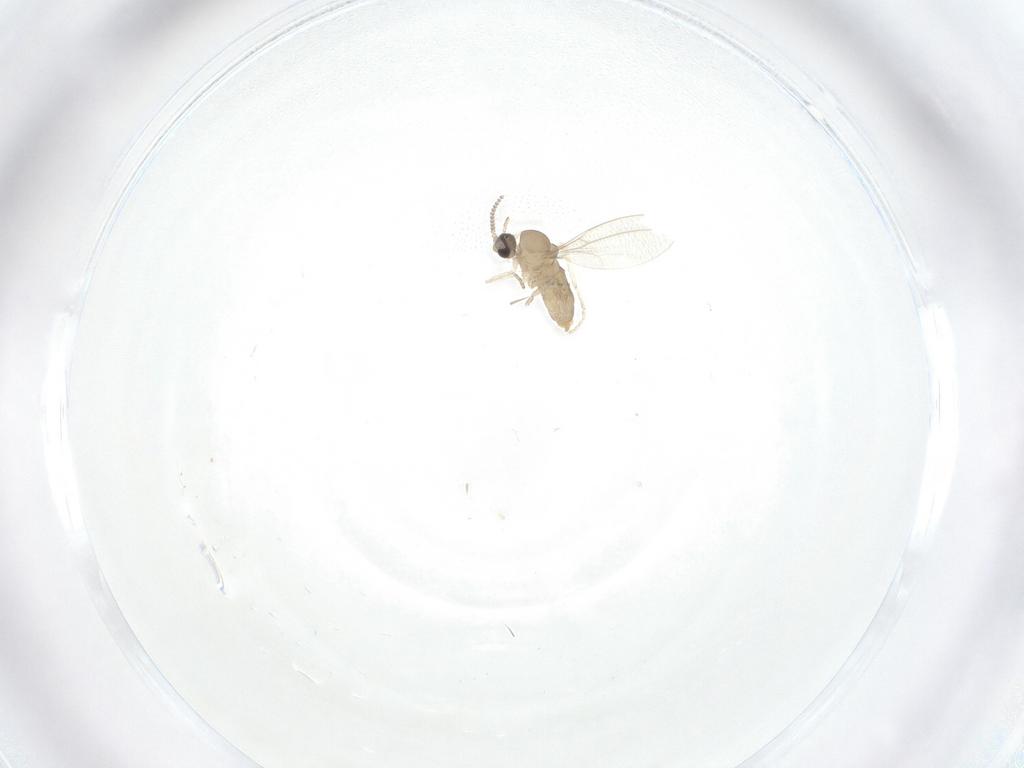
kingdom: Animalia
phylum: Arthropoda
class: Insecta
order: Diptera
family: Cecidomyiidae
